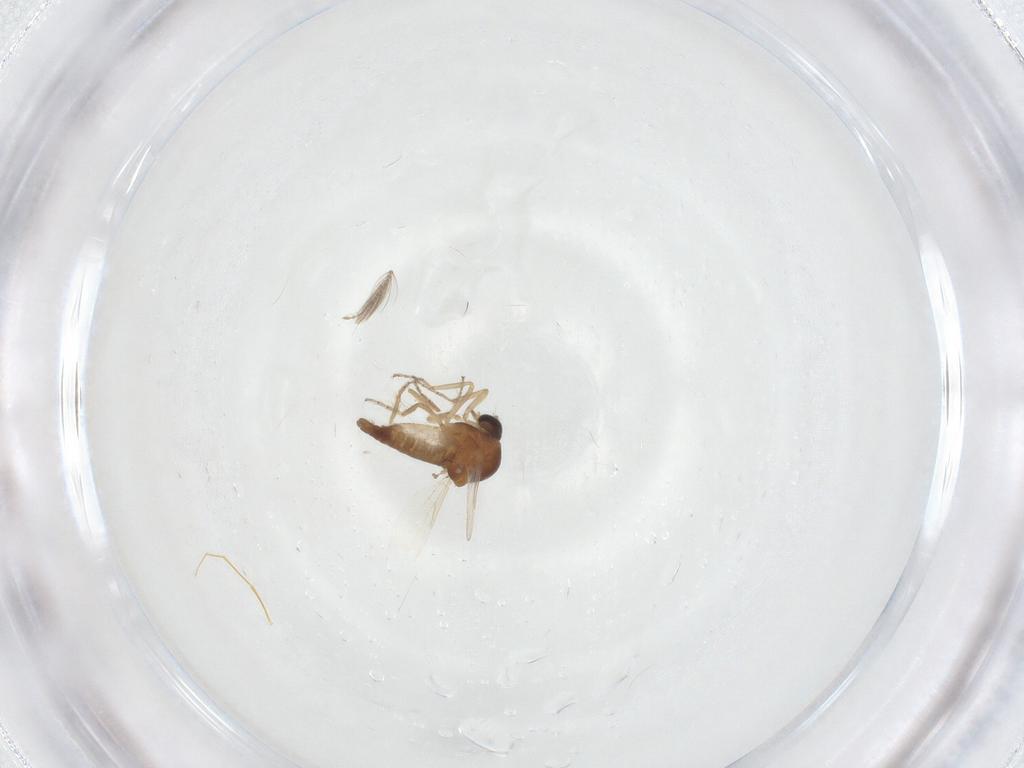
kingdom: Animalia
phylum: Arthropoda
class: Insecta
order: Diptera
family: Ceratopogonidae
